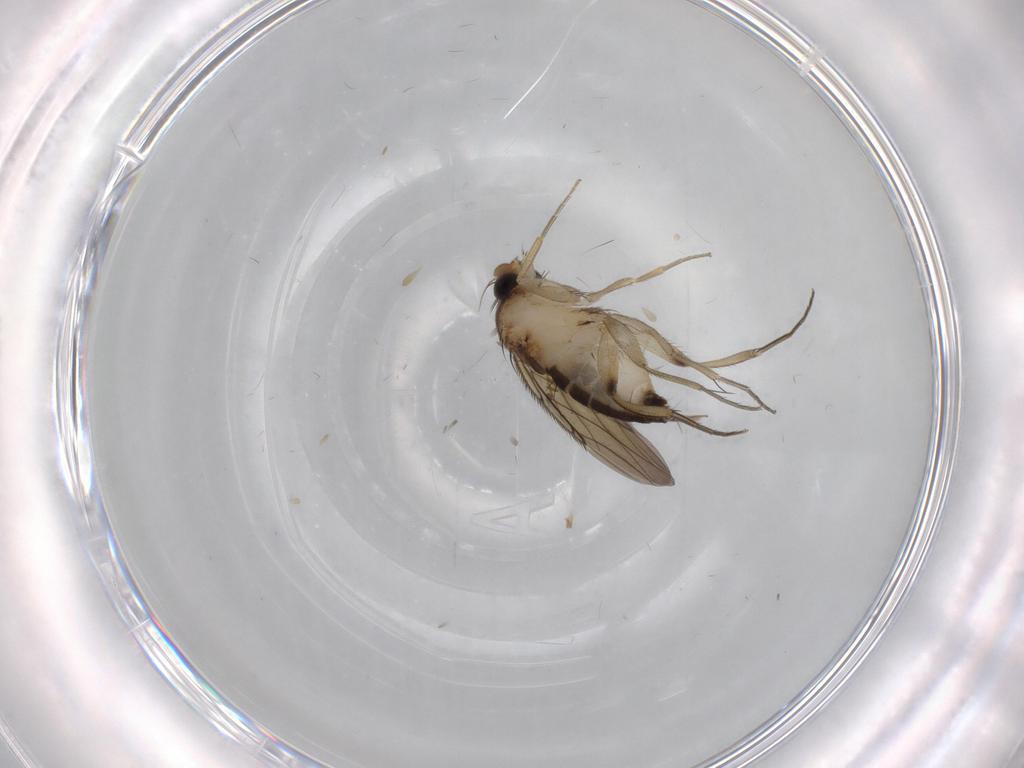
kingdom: Animalia
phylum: Arthropoda
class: Insecta
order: Diptera
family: Phoridae
